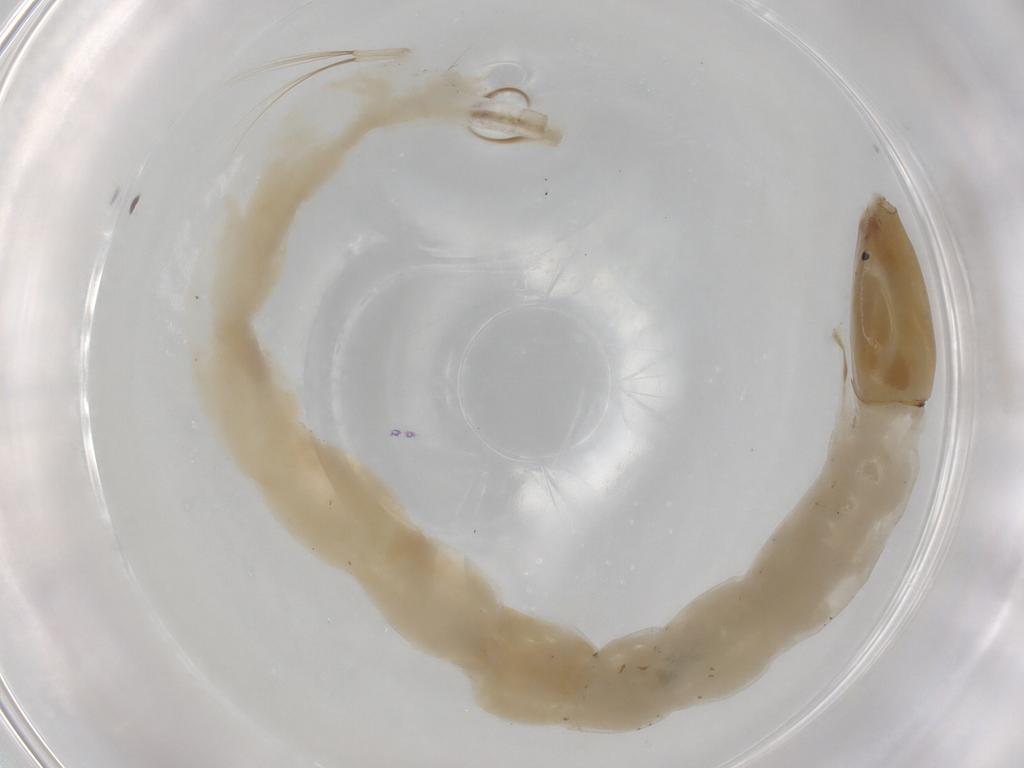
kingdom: Animalia
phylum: Arthropoda
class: Insecta
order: Diptera
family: Chironomidae
